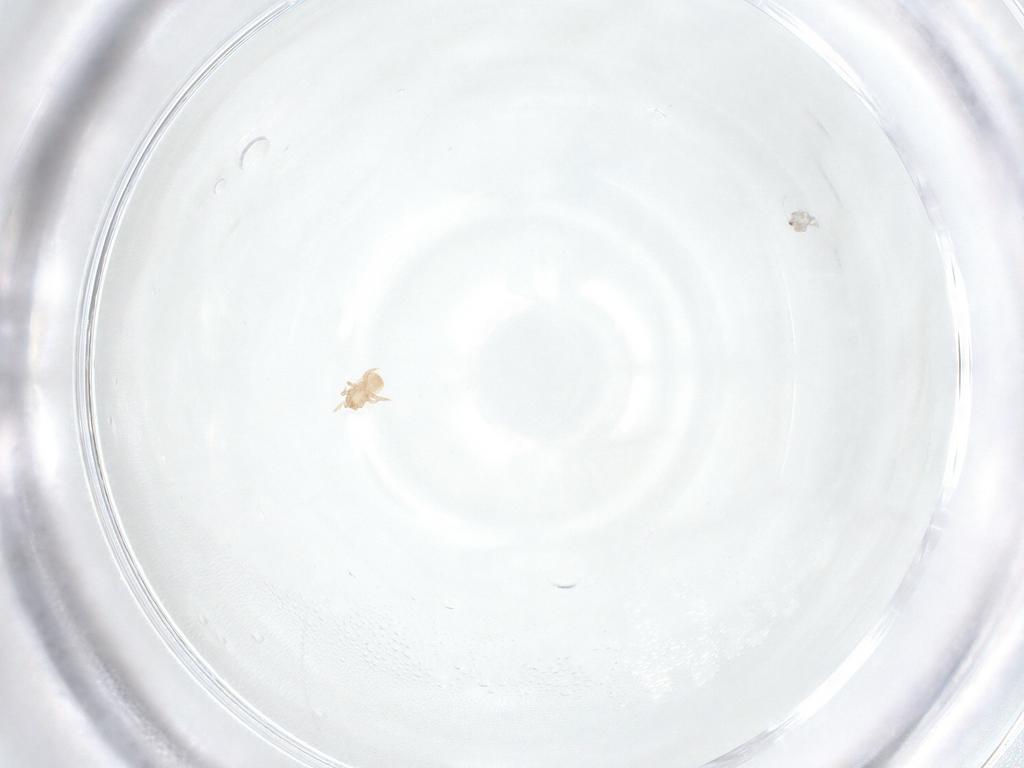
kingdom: Animalia
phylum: Arthropoda
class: Arachnida
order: Mesostigmata
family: Digamasellidae
